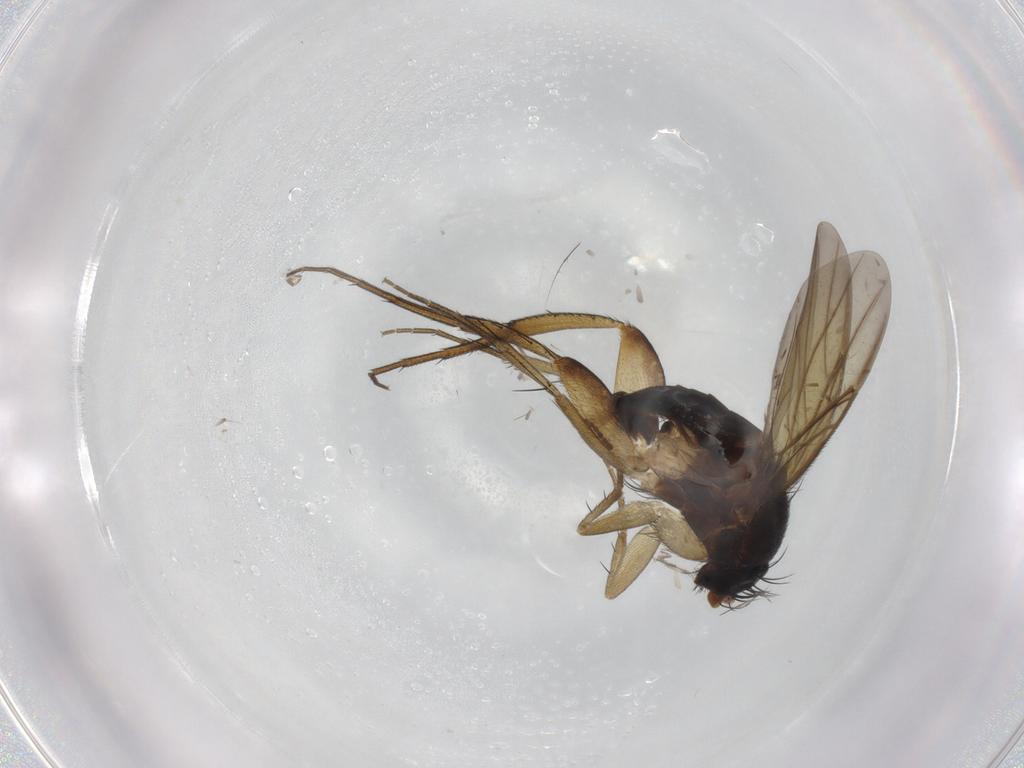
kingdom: Animalia
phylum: Arthropoda
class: Insecta
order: Diptera
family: Phoridae
